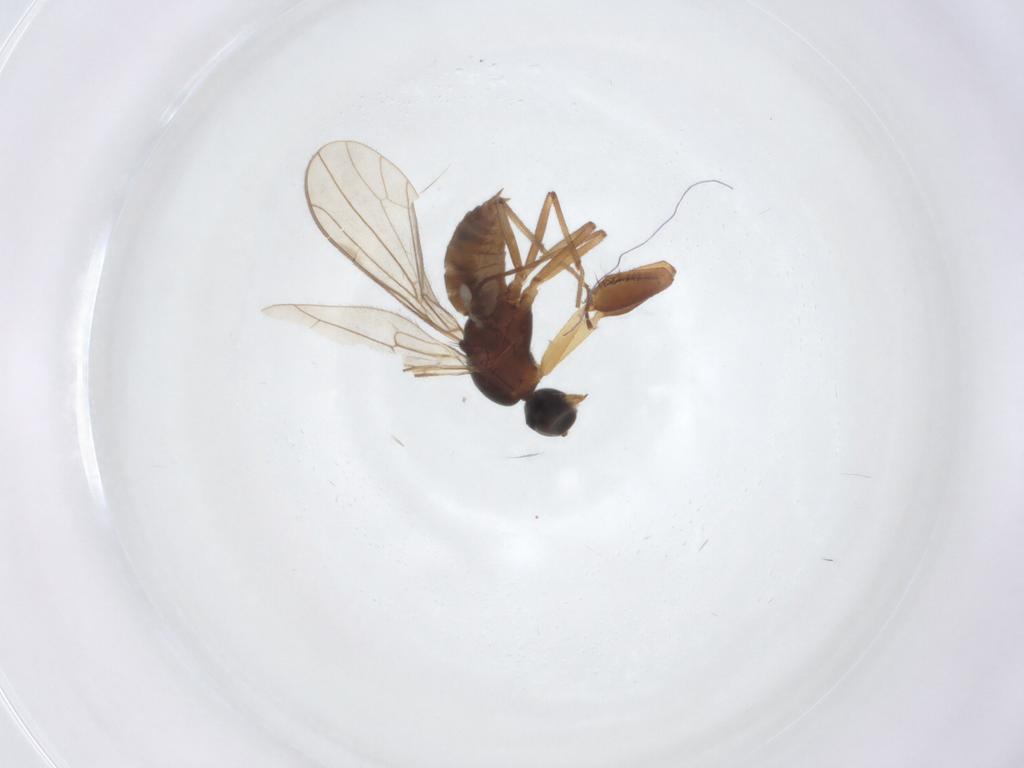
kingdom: Animalia
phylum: Arthropoda
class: Insecta
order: Diptera
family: Empididae
